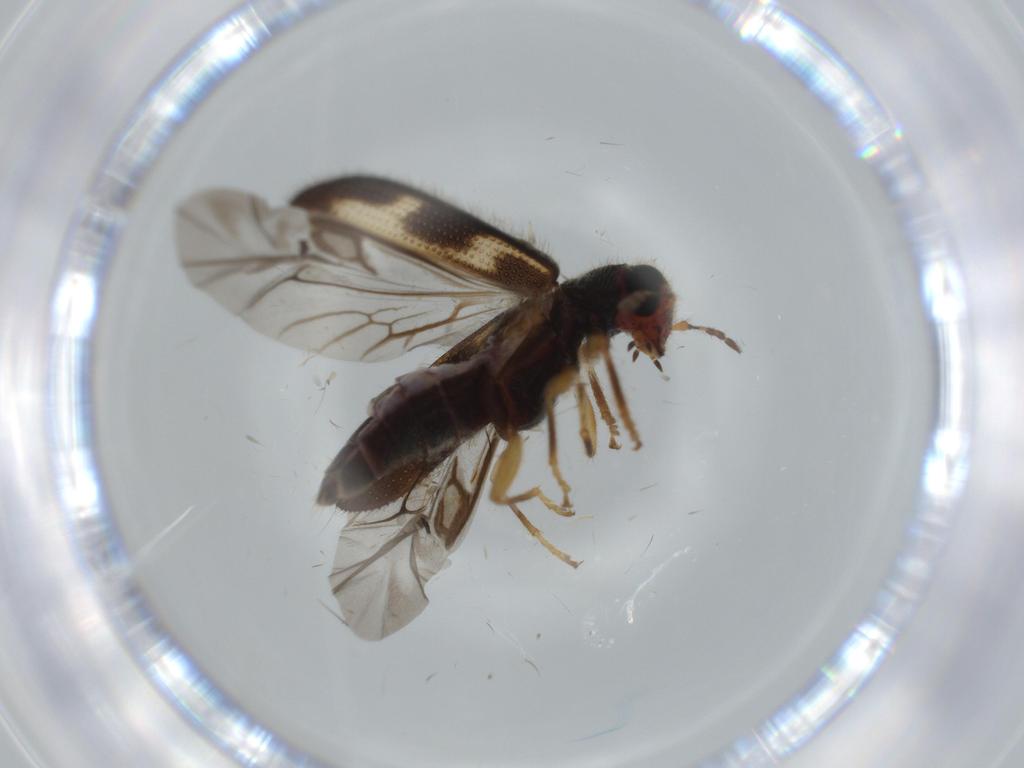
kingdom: Animalia
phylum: Arthropoda
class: Insecta
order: Coleoptera
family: Cleridae
